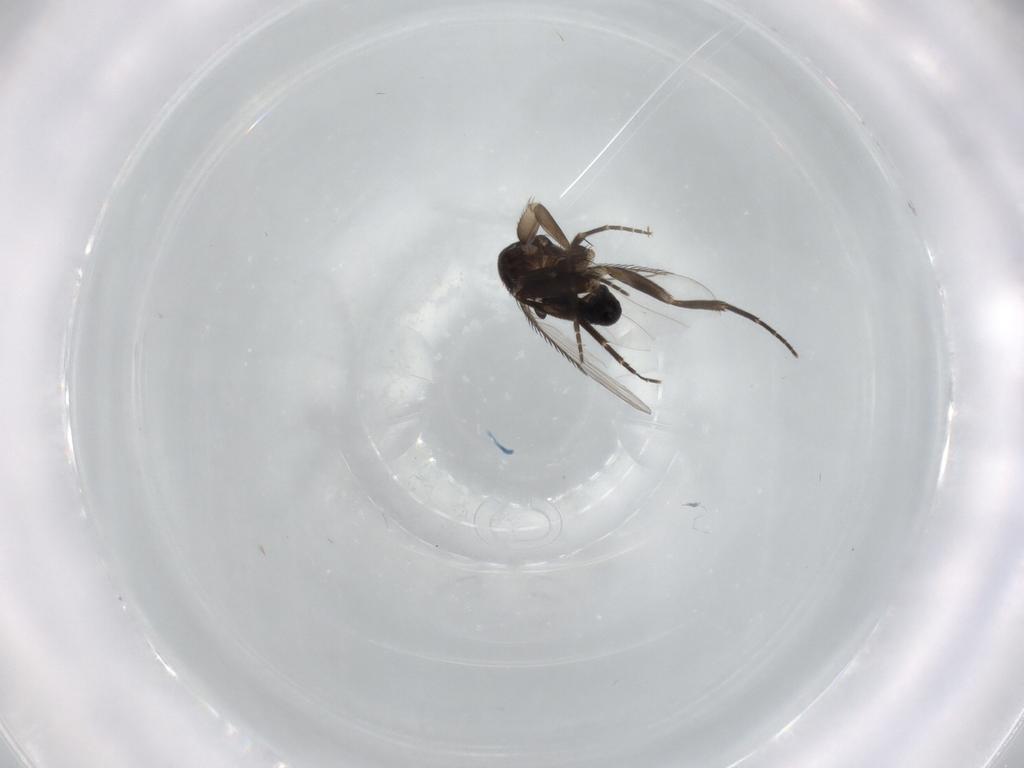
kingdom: Animalia
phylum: Arthropoda
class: Insecta
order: Diptera
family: Phoridae
